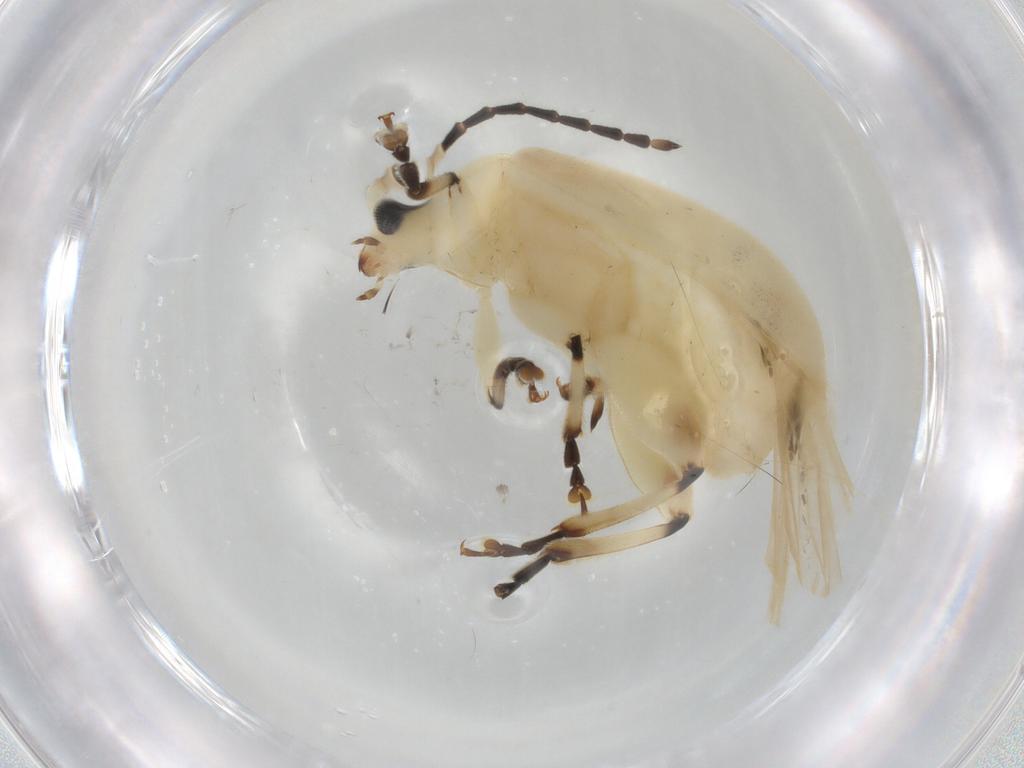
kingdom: Animalia
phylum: Arthropoda
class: Insecta
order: Coleoptera
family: Chrysomelidae
